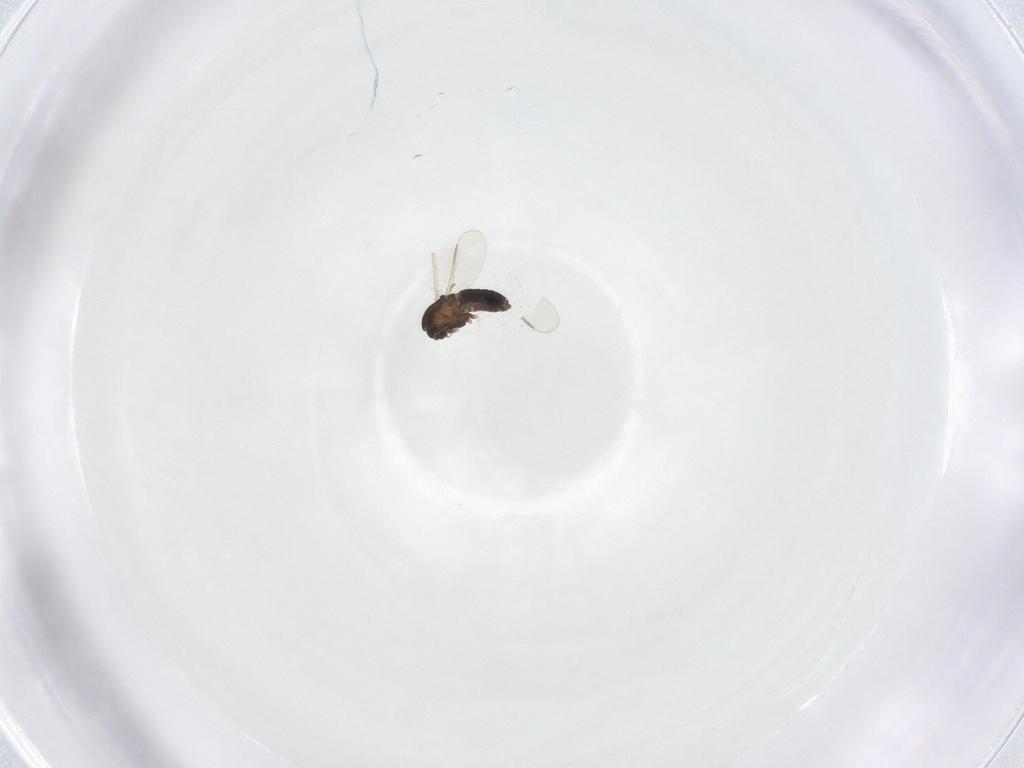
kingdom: Animalia
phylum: Arthropoda
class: Insecta
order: Diptera
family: Chironomidae
